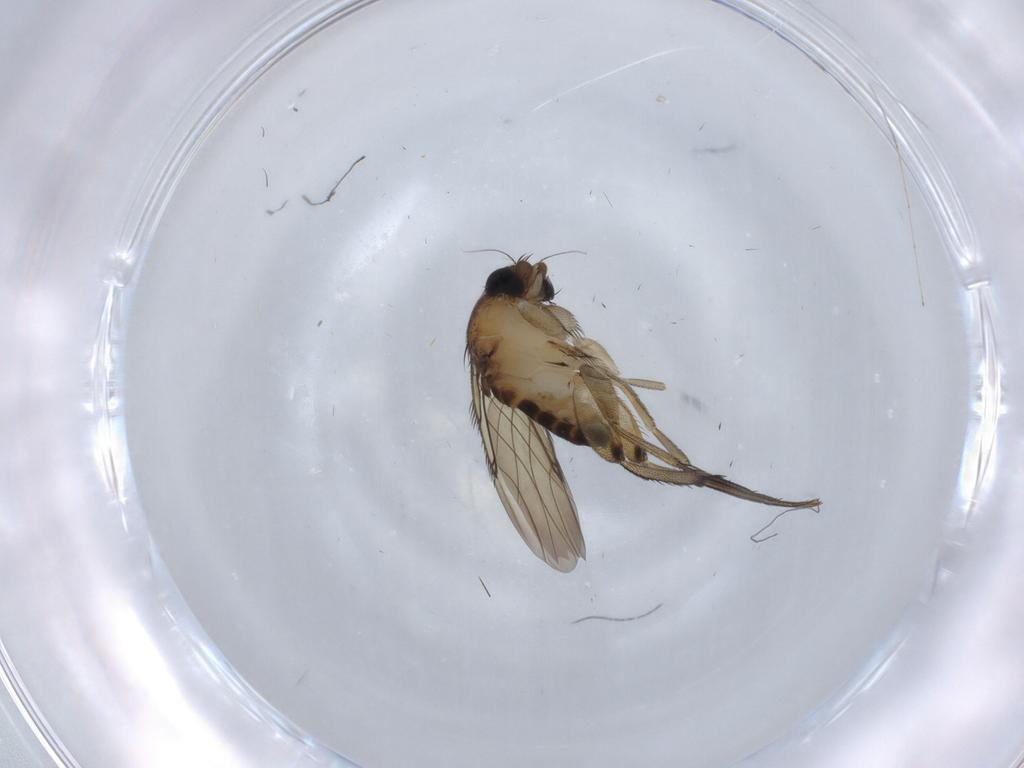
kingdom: Animalia
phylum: Arthropoda
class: Insecta
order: Diptera
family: Phoridae
